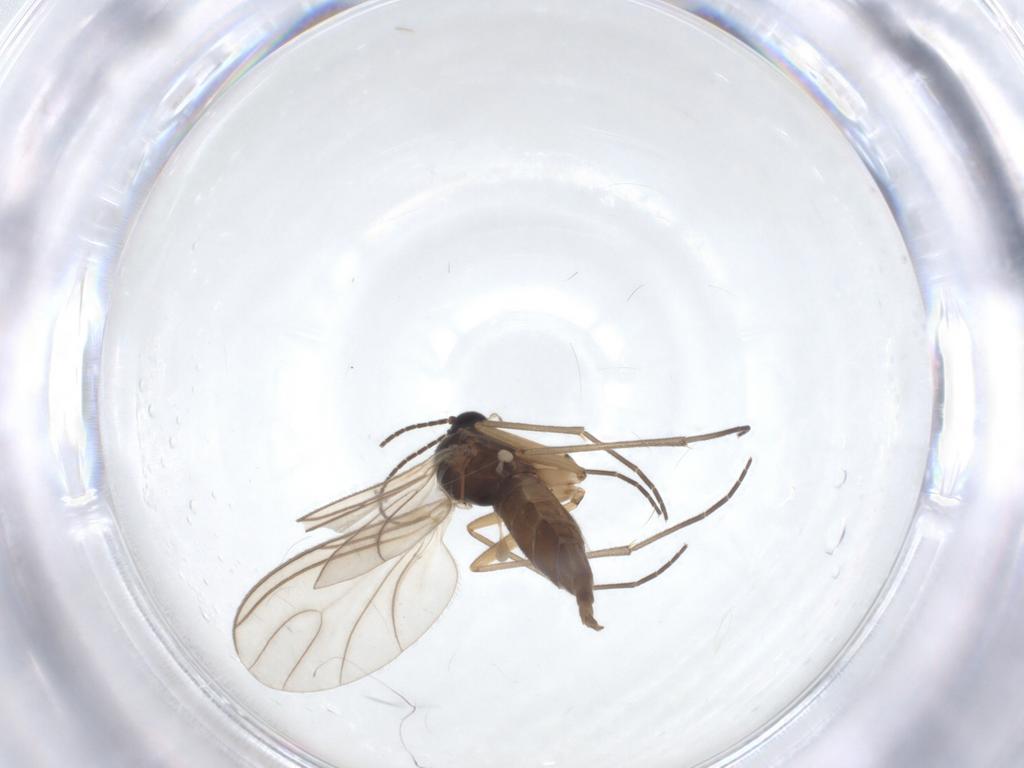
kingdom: Animalia
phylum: Arthropoda
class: Insecta
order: Diptera
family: Sciaridae
